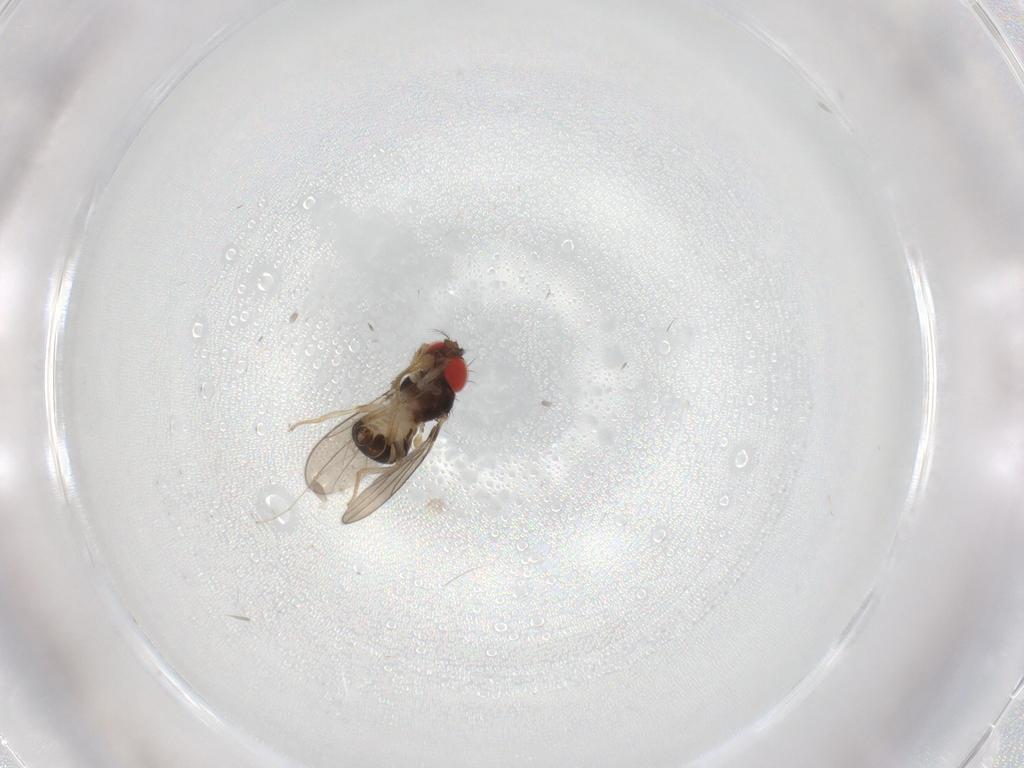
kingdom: Animalia
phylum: Arthropoda
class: Insecta
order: Diptera
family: Drosophilidae
